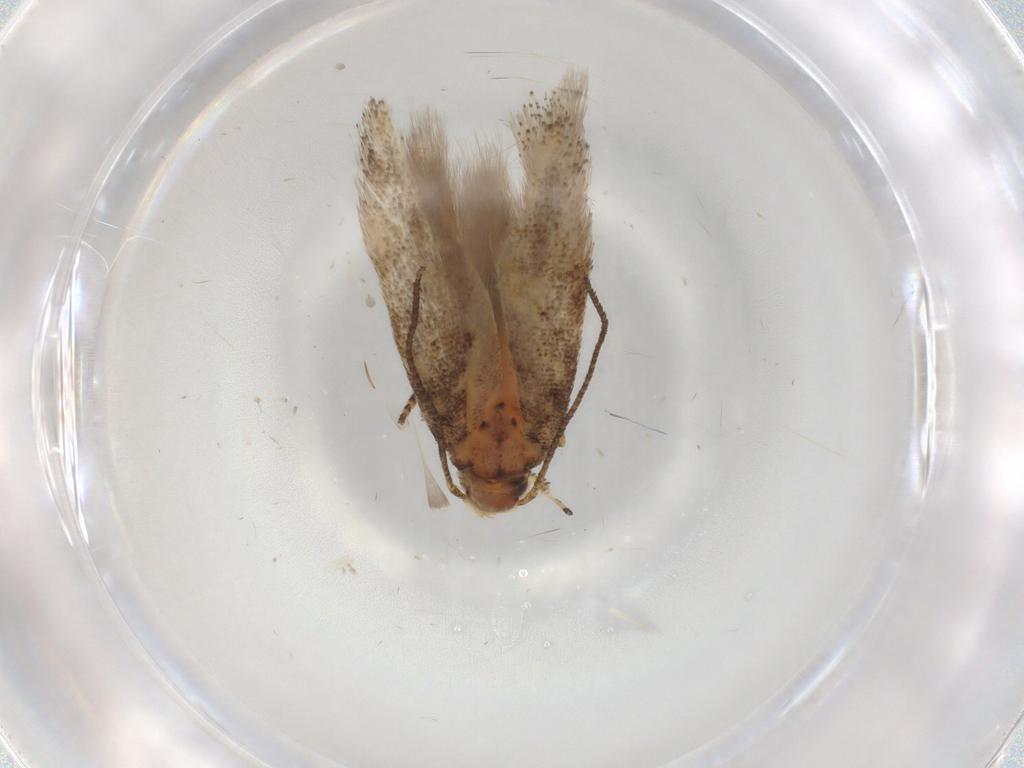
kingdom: Animalia
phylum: Arthropoda
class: Insecta
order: Lepidoptera
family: Gelechiidae
